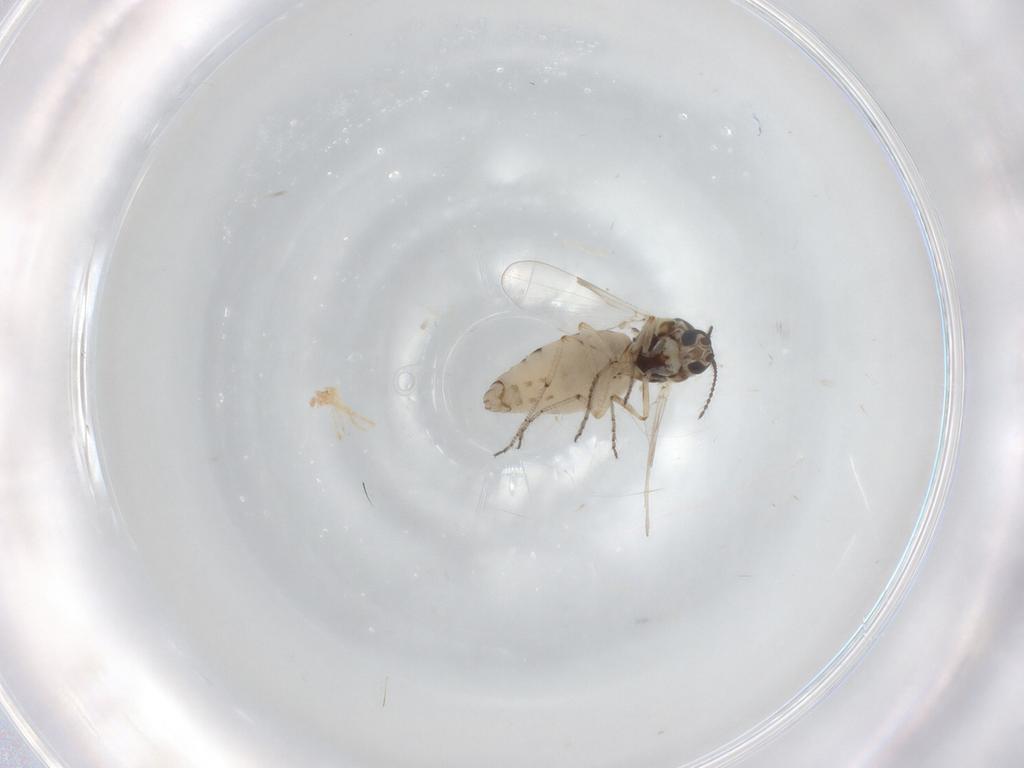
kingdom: Animalia
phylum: Arthropoda
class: Insecta
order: Diptera
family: Ceratopogonidae
